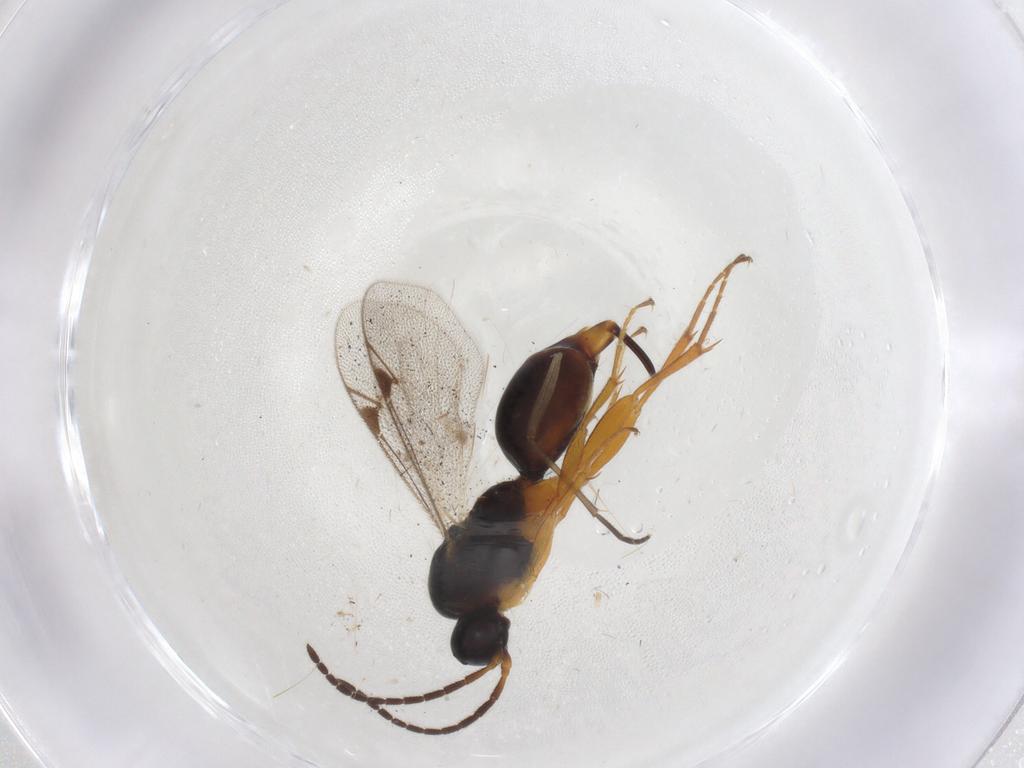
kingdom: Animalia
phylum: Arthropoda
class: Insecta
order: Hymenoptera
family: Proctotrupidae
